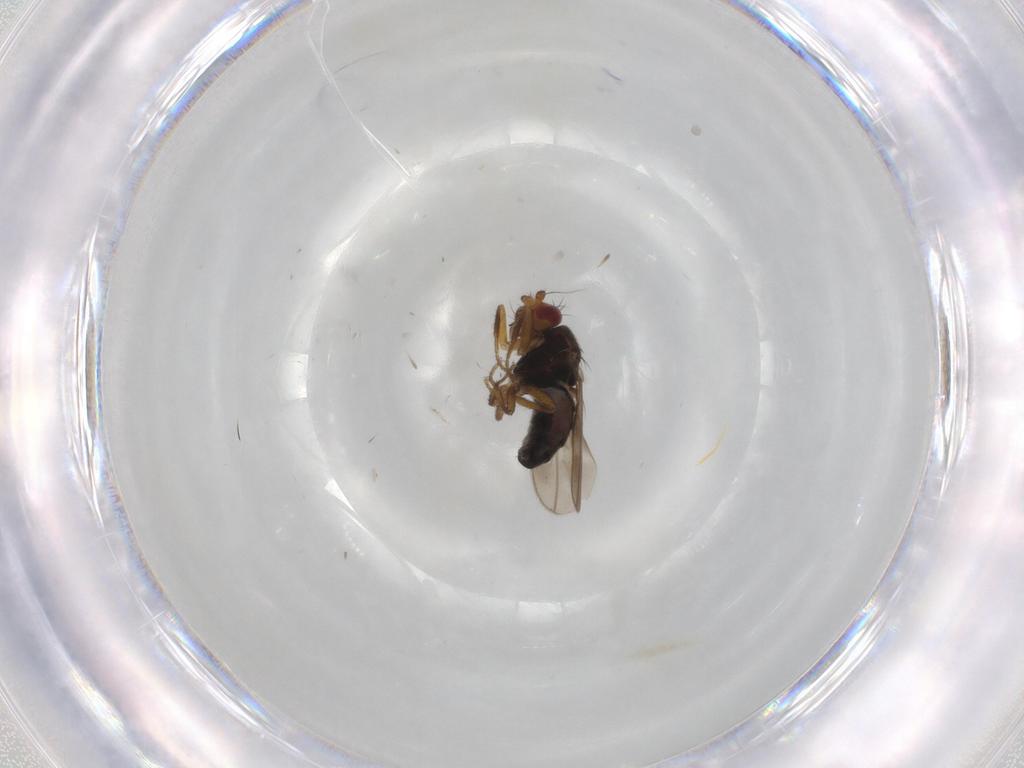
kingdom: Animalia
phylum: Arthropoda
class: Insecta
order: Diptera
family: Sphaeroceridae
